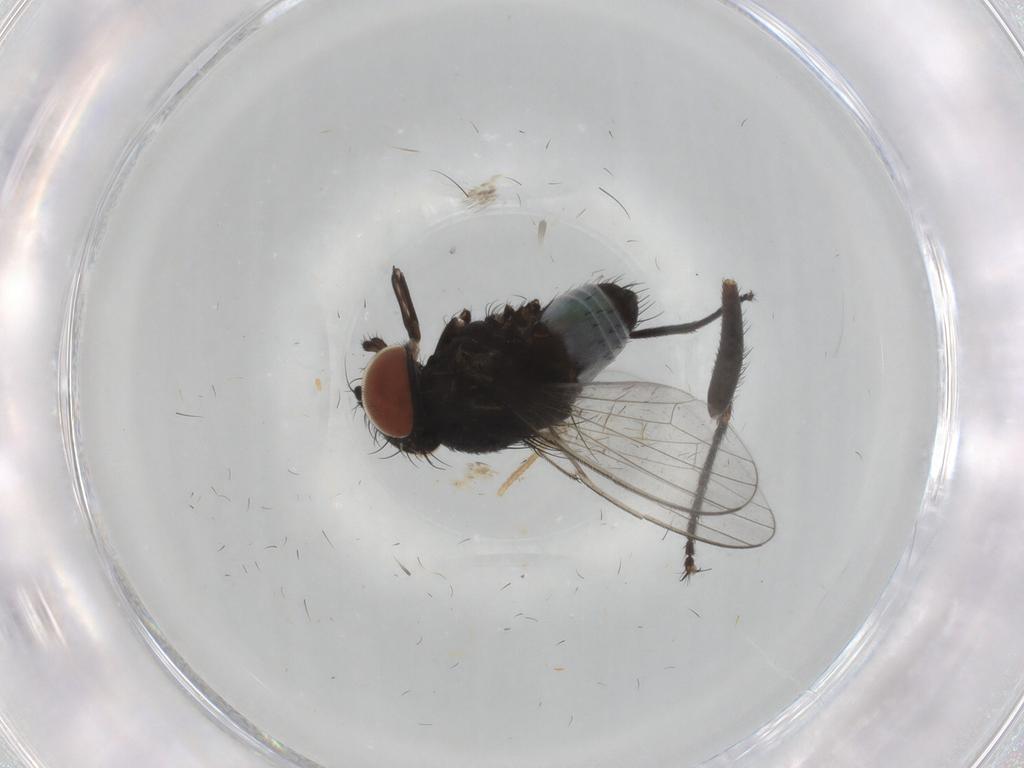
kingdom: Animalia
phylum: Arthropoda
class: Insecta
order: Diptera
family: Milichiidae
